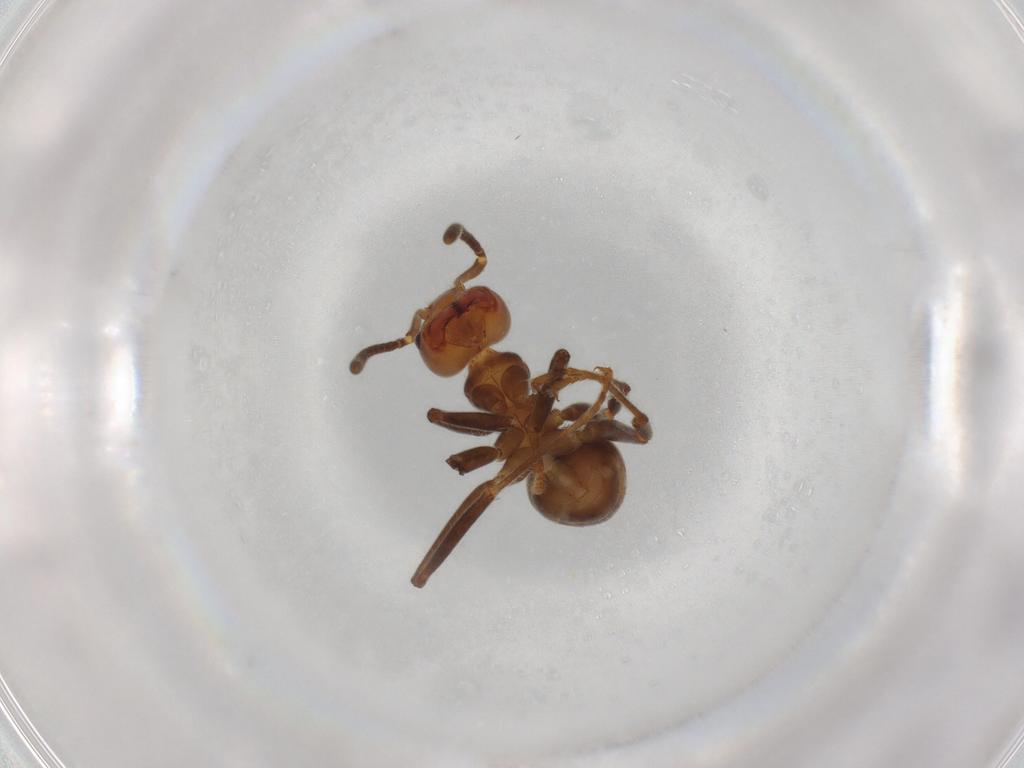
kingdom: Animalia
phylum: Arthropoda
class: Insecta
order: Hymenoptera
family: Formicidae
